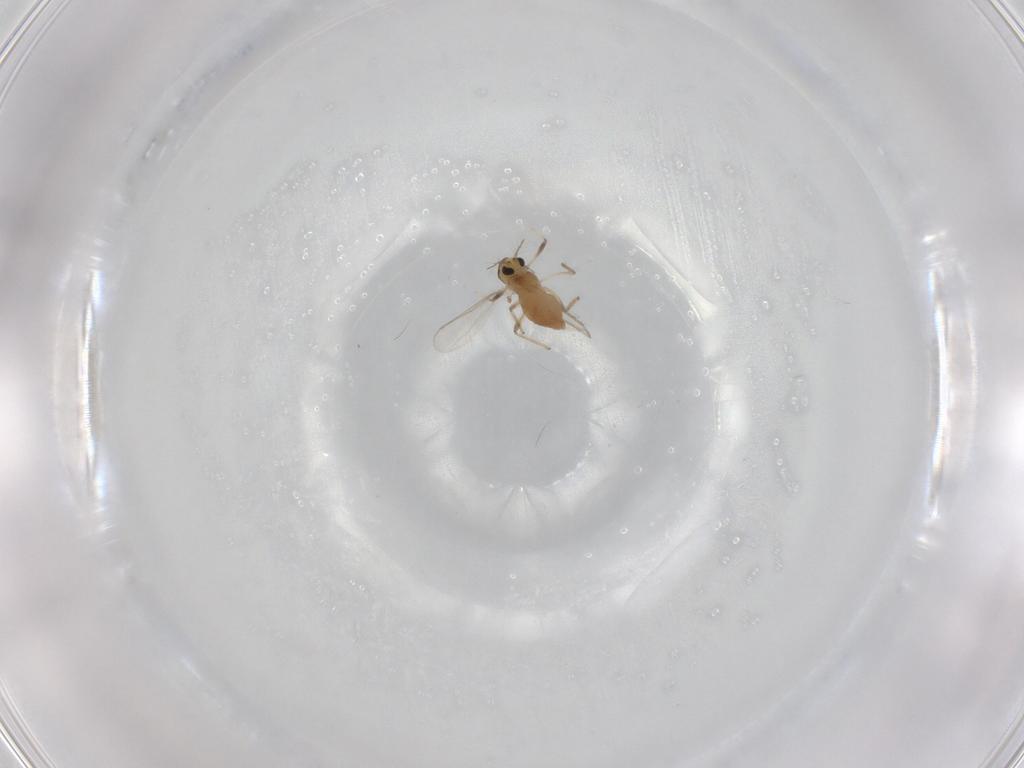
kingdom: Animalia
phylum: Arthropoda
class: Insecta
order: Diptera
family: Chironomidae
